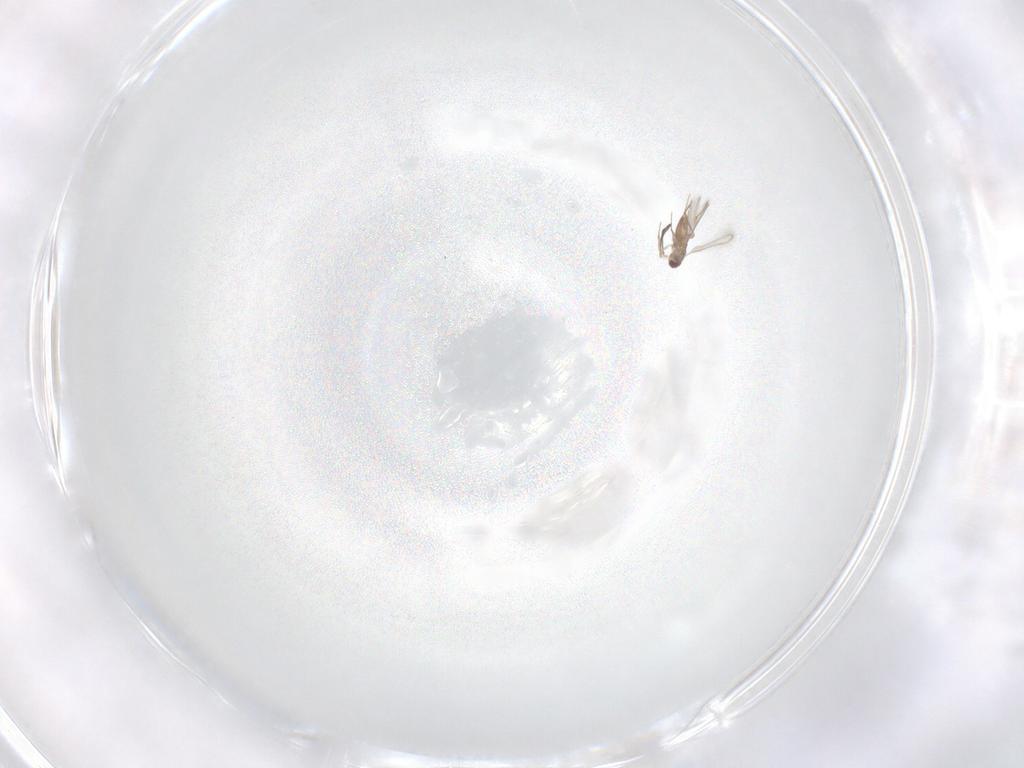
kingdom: Animalia
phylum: Arthropoda
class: Insecta
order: Hymenoptera
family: Mymaridae
